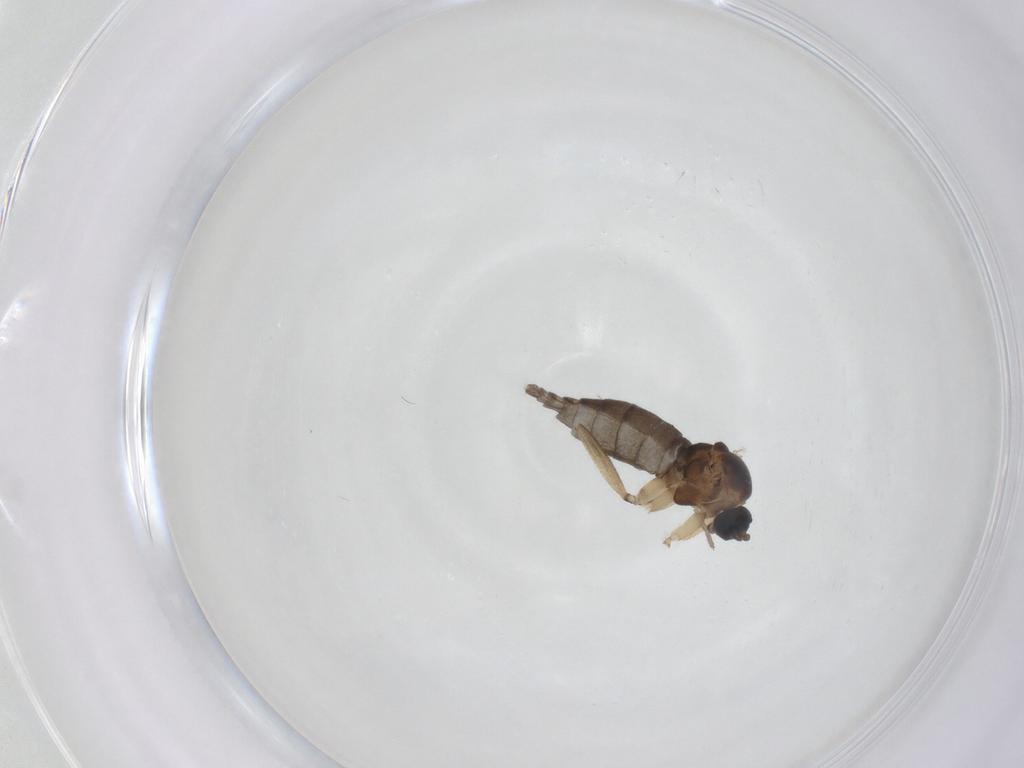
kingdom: Animalia
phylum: Arthropoda
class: Insecta
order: Diptera
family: Sciaridae
